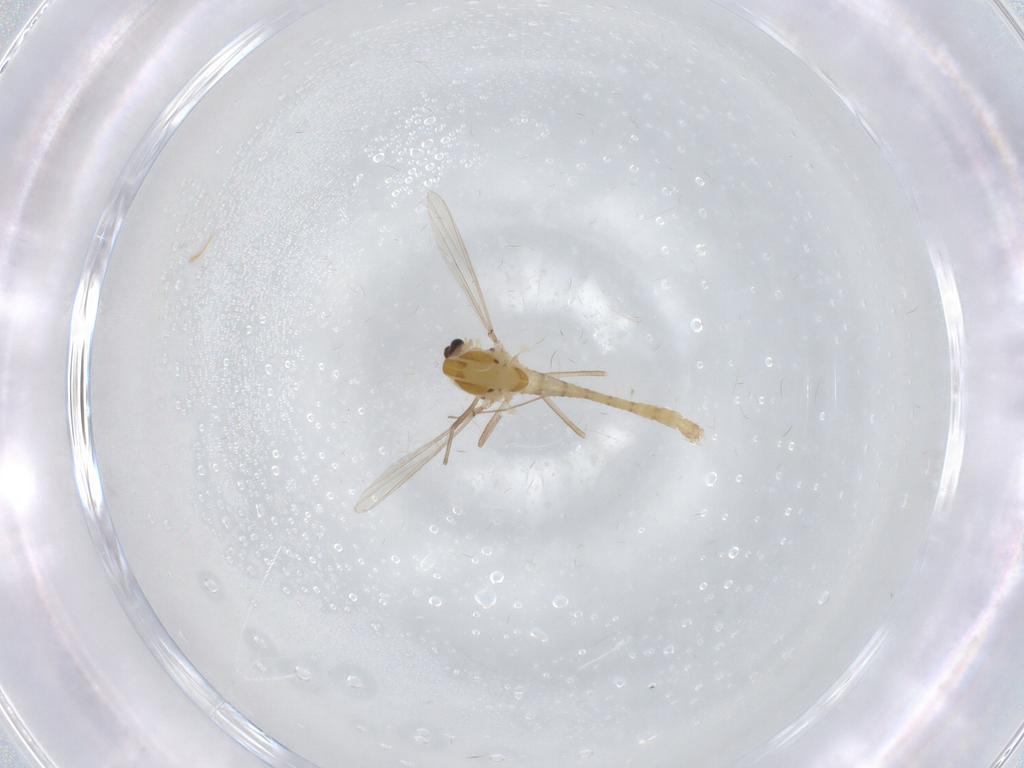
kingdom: Animalia
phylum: Arthropoda
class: Insecta
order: Diptera
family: Chironomidae
